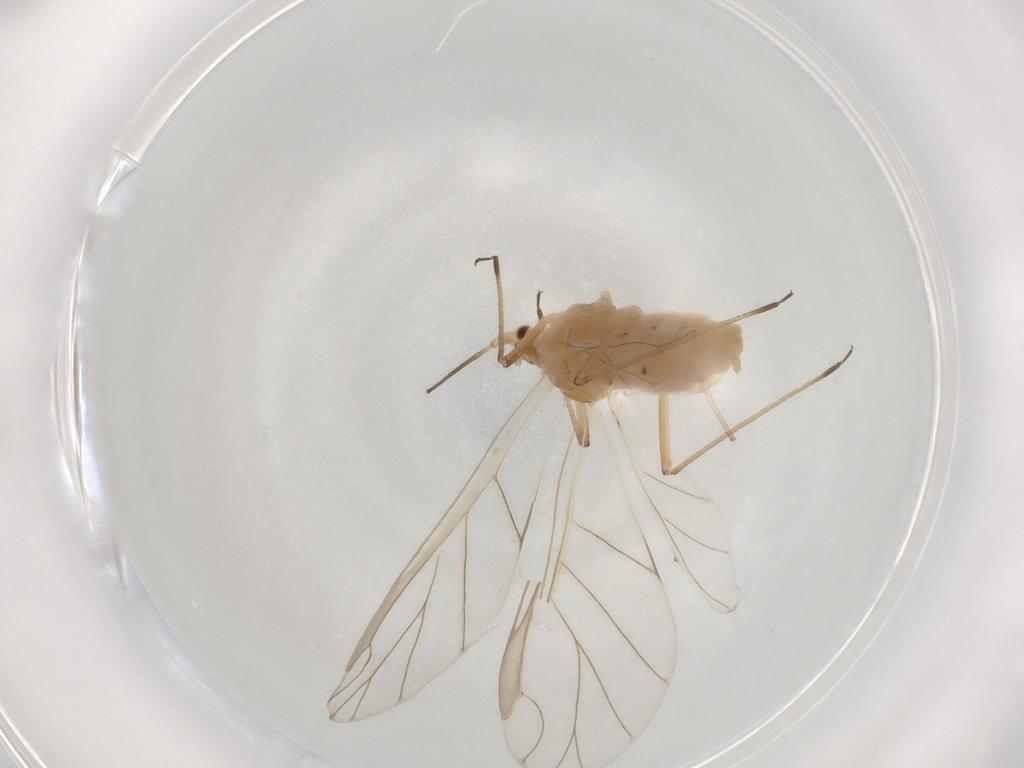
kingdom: Animalia
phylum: Arthropoda
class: Insecta
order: Hemiptera
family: Aphididae
